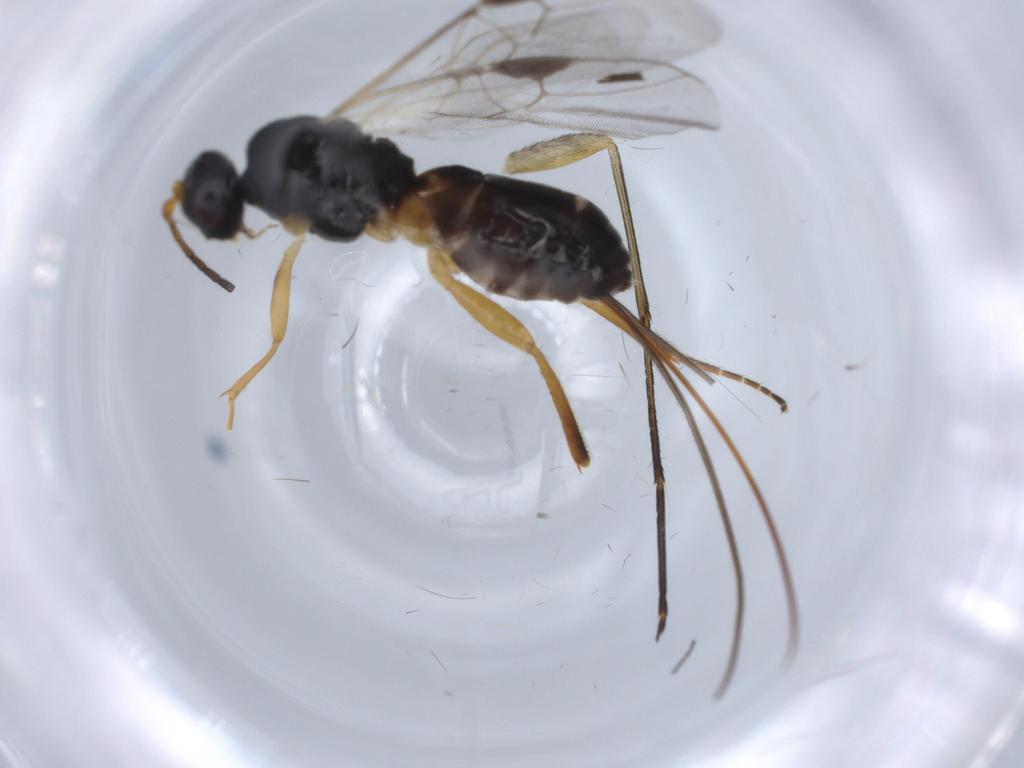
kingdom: Animalia
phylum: Arthropoda
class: Insecta
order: Hymenoptera
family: Braconidae
